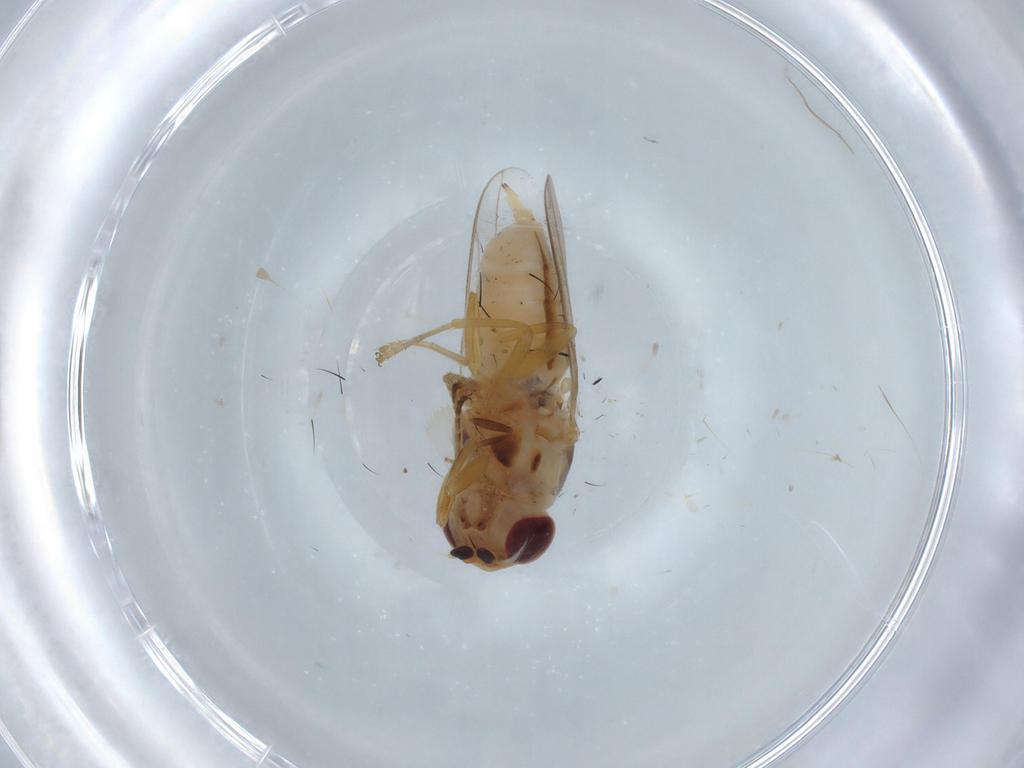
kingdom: Animalia
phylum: Arthropoda
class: Insecta
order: Diptera
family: Chloropidae
